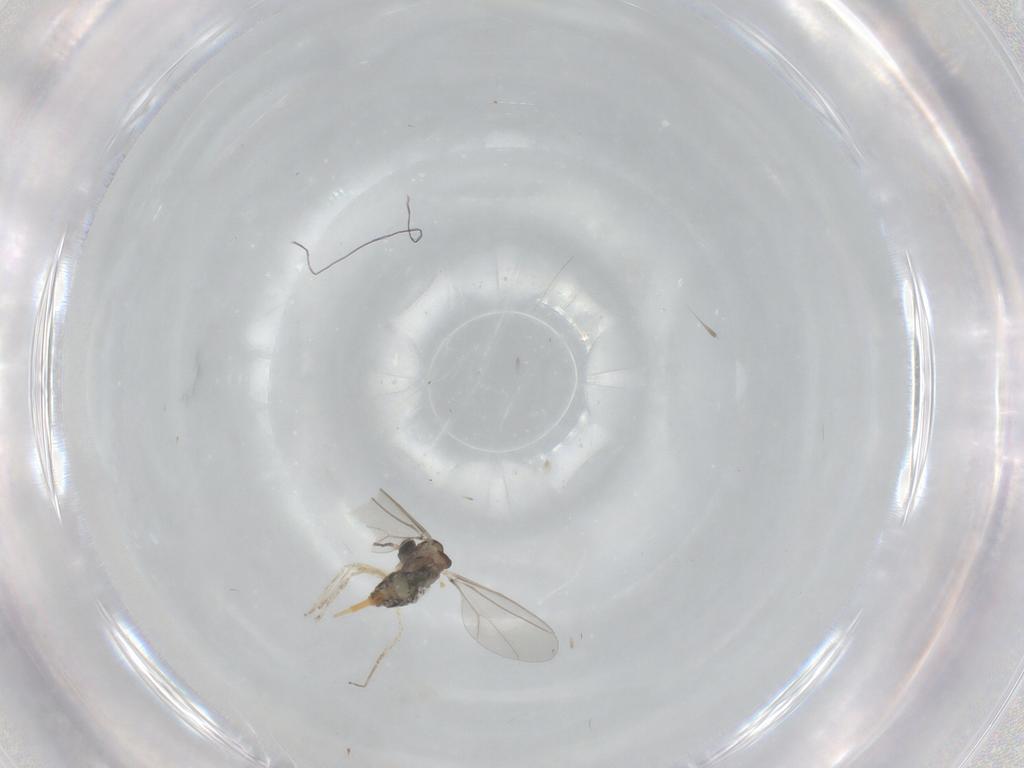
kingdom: Animalia
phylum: Arthropoda
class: Insecta
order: Diptera
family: Cecidomyiidae
